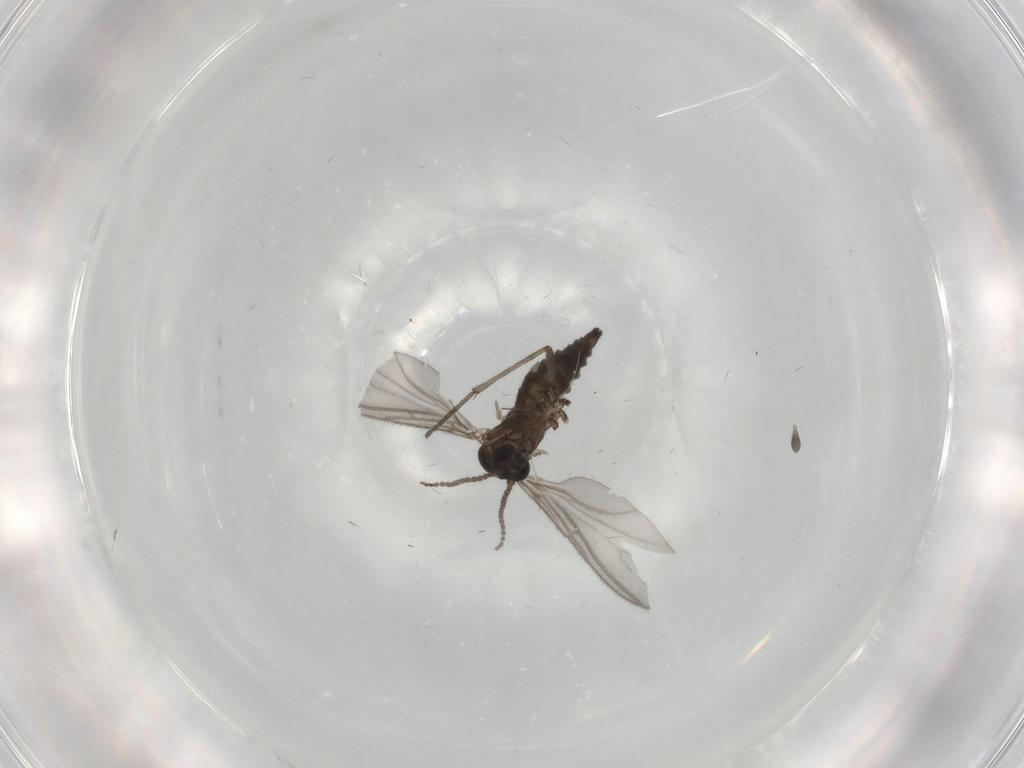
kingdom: Animalia
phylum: Arthropoda
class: Insecta
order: Diptera
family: Sciaridae
